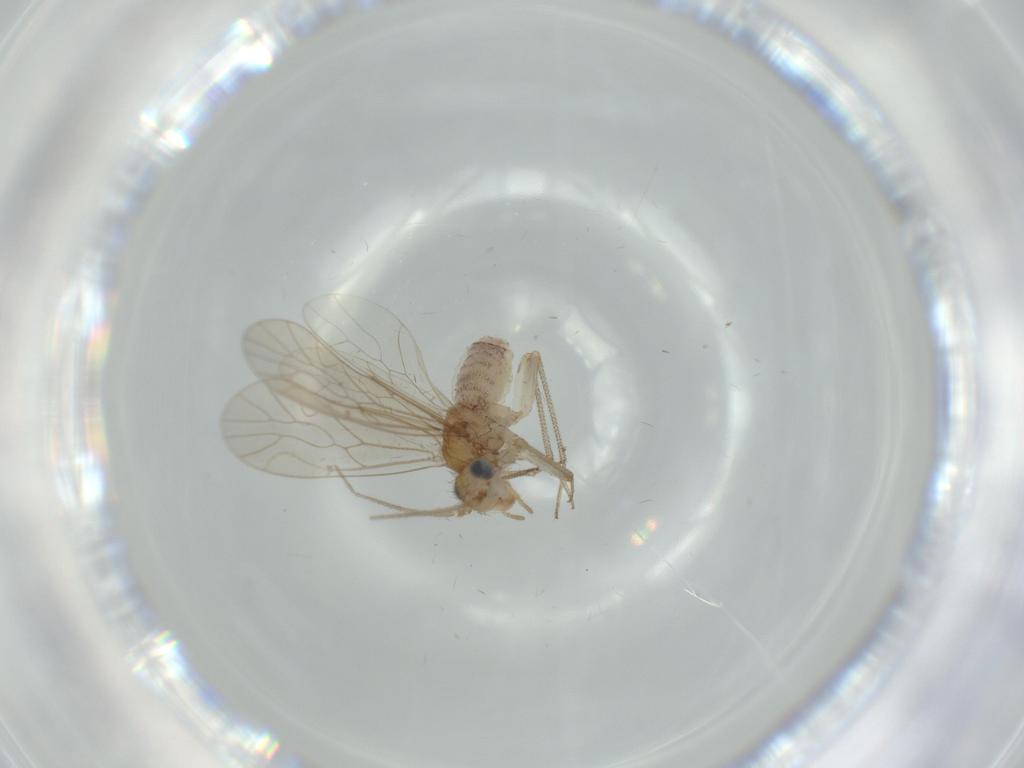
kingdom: Animalia
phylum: Arthropoda
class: Insecta
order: Psocodea
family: Caeciliusidae
